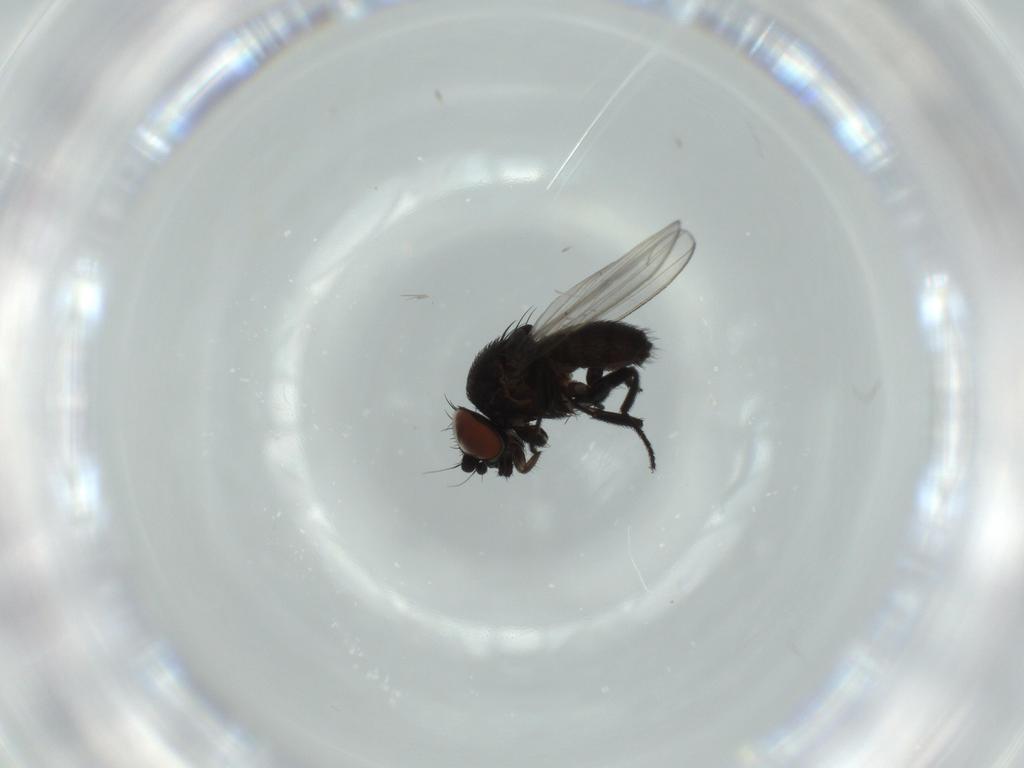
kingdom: Animalia
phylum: Arthropoda
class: Insecta
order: Diptera
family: Milichiidae
